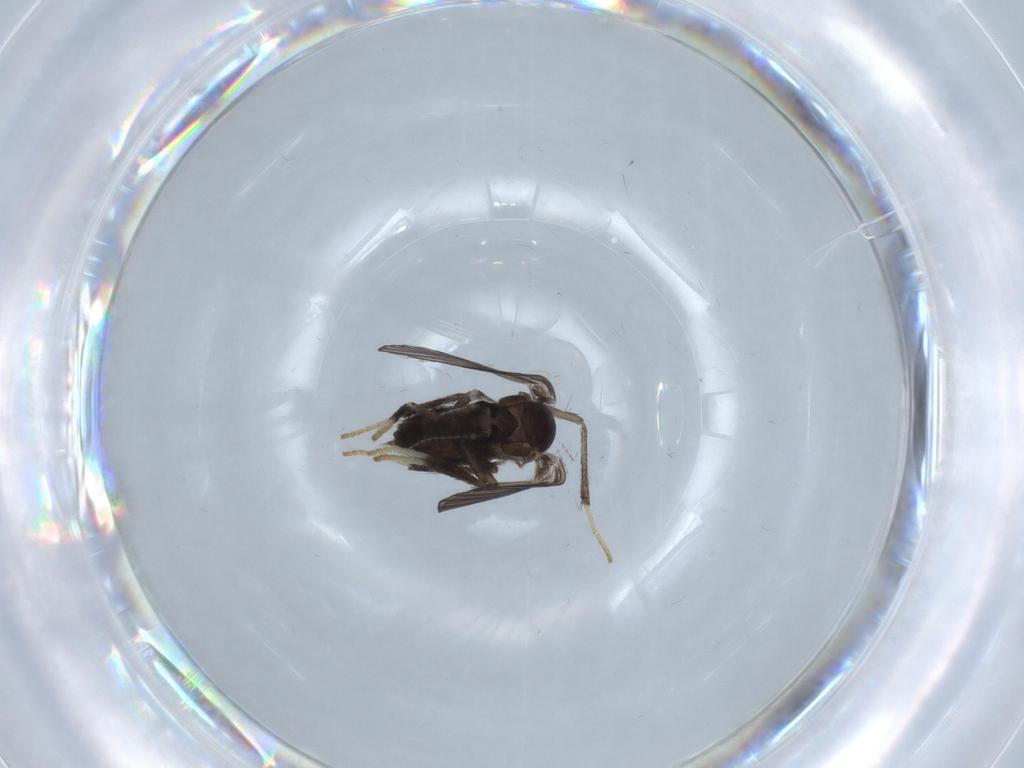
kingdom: Animalia
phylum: Arthropoda
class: Insecta
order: Diptera
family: Psychodidae
